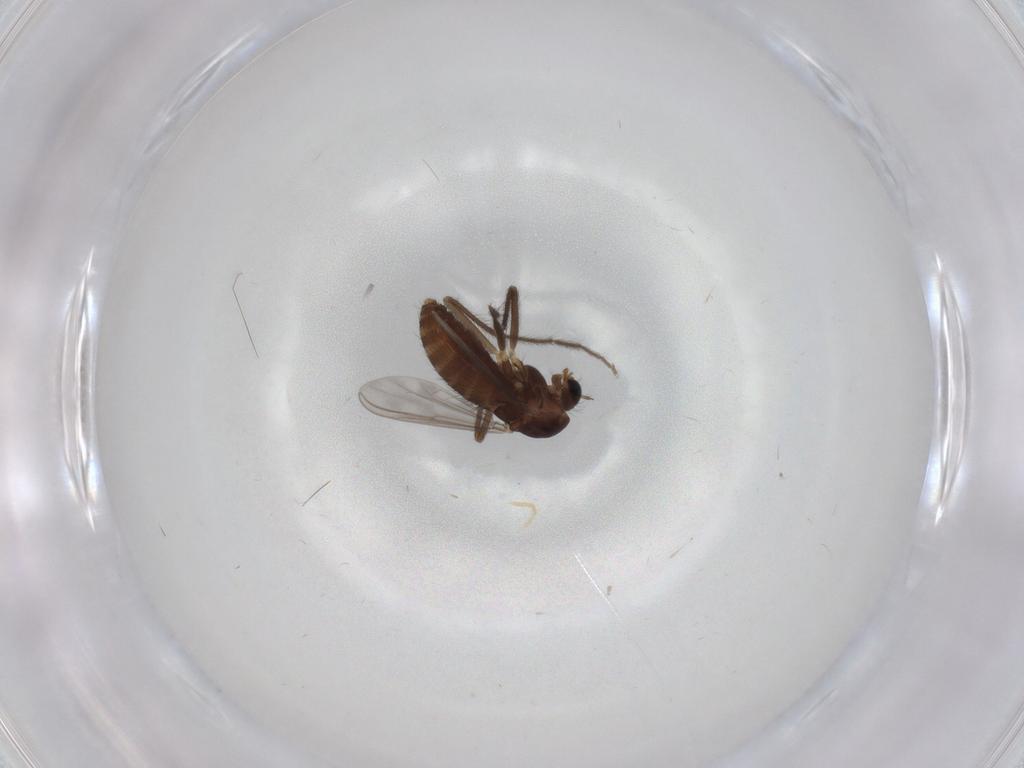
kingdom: Animalia
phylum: Arthropoda
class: Insecta
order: Diptera
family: Chironomidae
